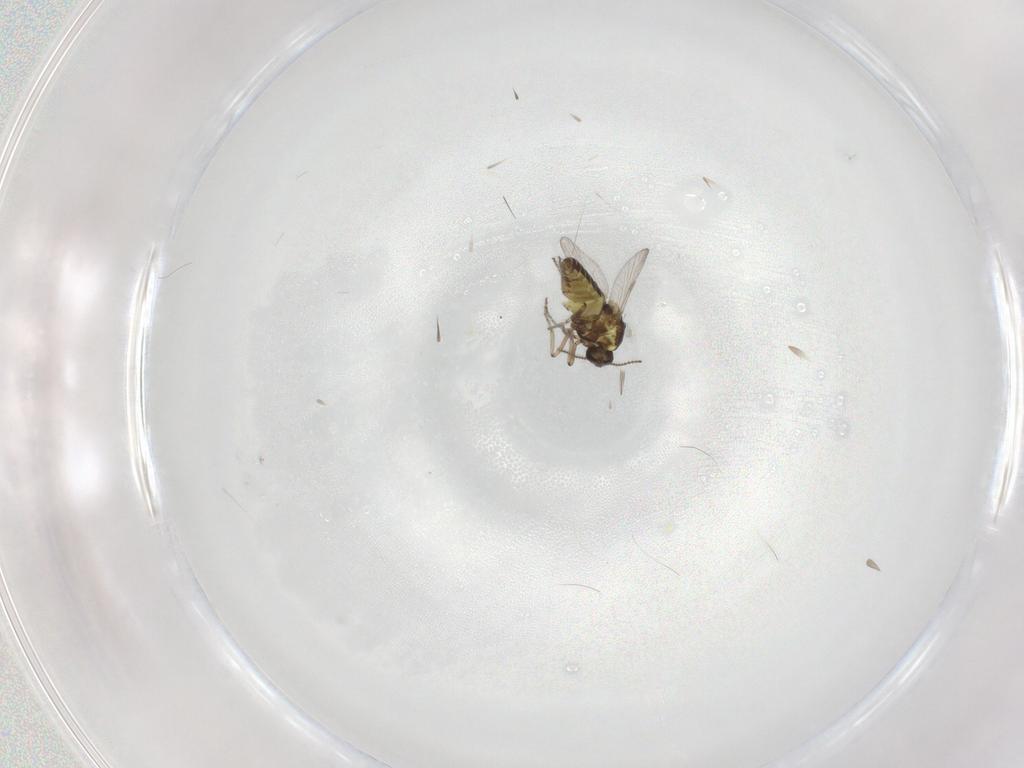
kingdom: Animalia
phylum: Arthropoda
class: Insecta
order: Diptera
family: Ceratopogonidae
